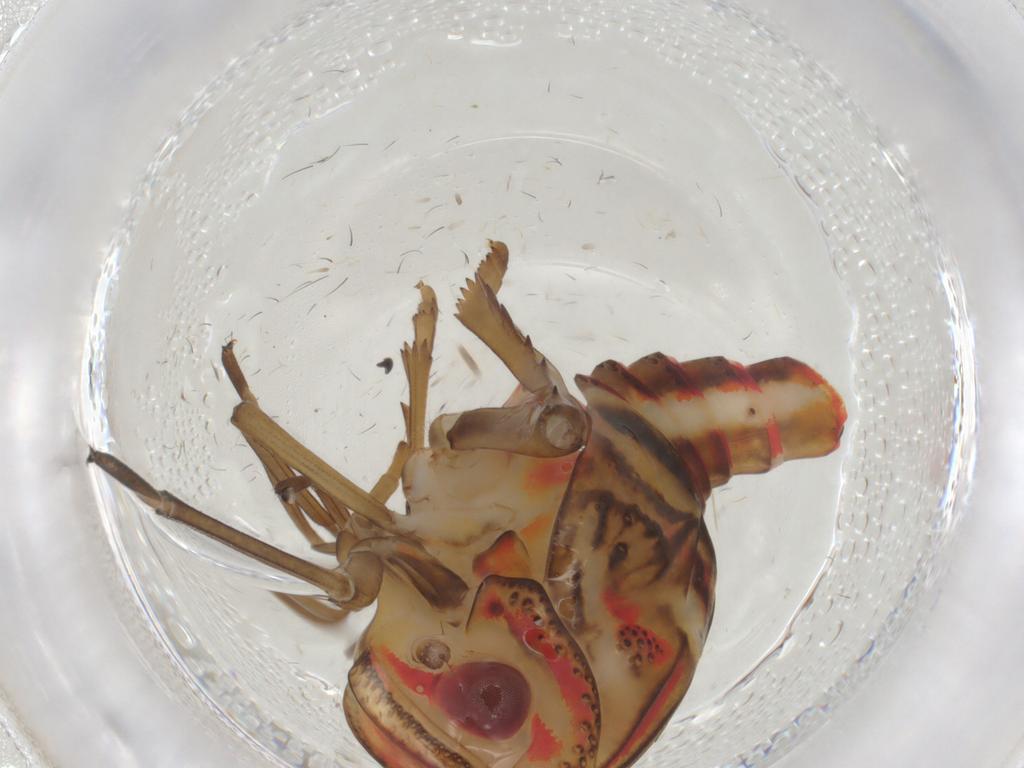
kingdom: Animalia
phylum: Arthropoda
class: Insecta
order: Hemiptera
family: Nogodinidae
